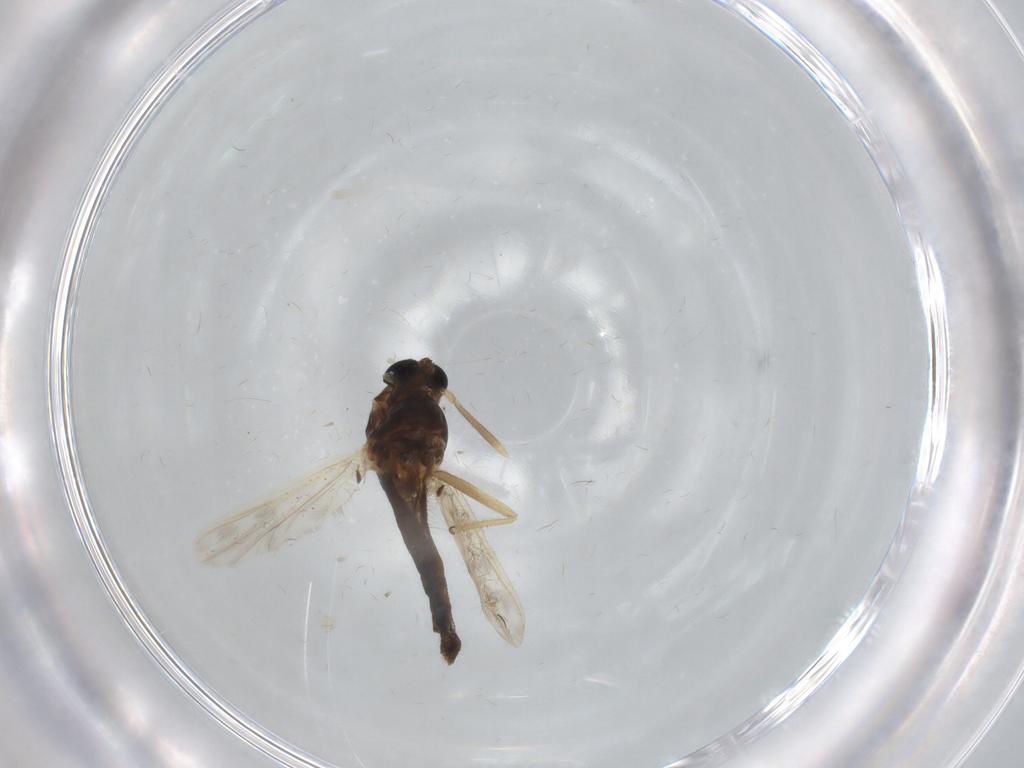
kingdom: Animalia
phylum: Arthropoda
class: Insecta
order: Diptera
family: Chironomidae
